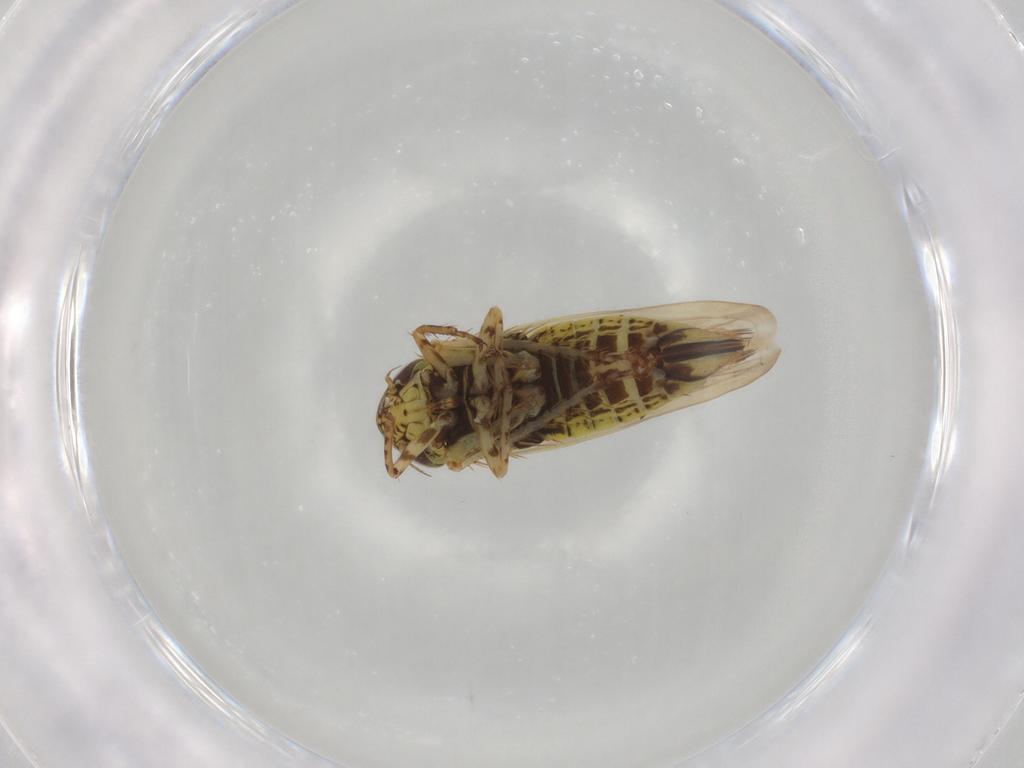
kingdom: Animalia
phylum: Arthropoda
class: Insecta
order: Hemiptera
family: Cicadellidae
